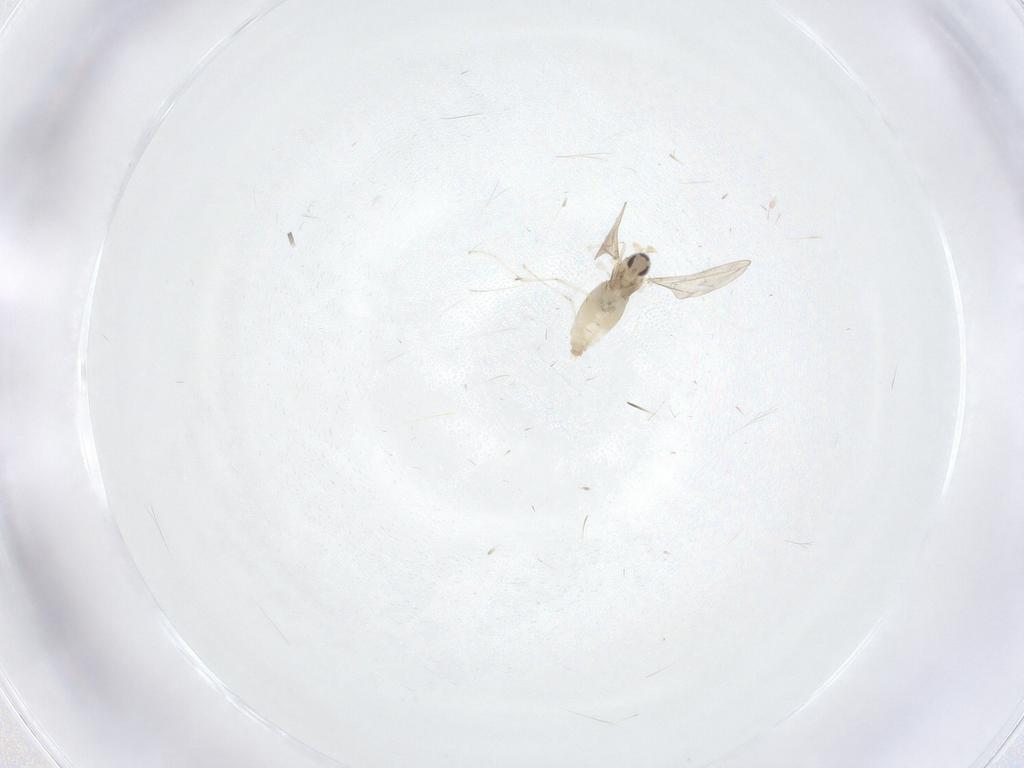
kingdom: Animalia
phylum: Arthropoda
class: Insecta
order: Diptera
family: Cecidomyiidae
